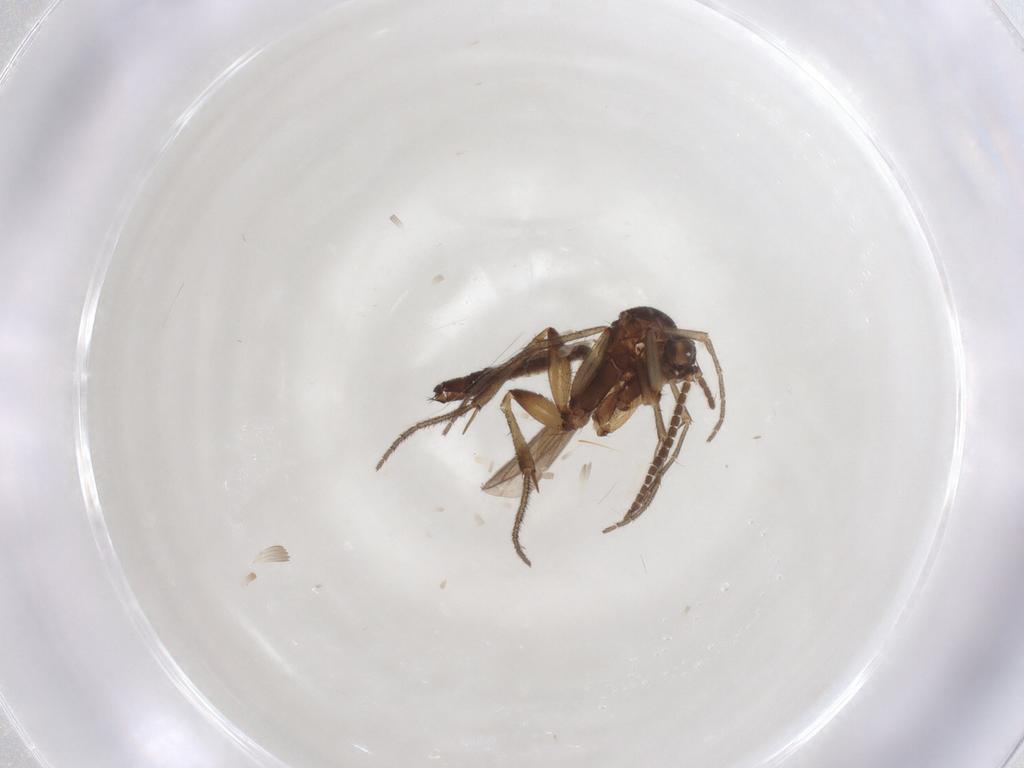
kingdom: Animalia
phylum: Arthropoda
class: Insecta
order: Diptera
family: Mycetophilidae
